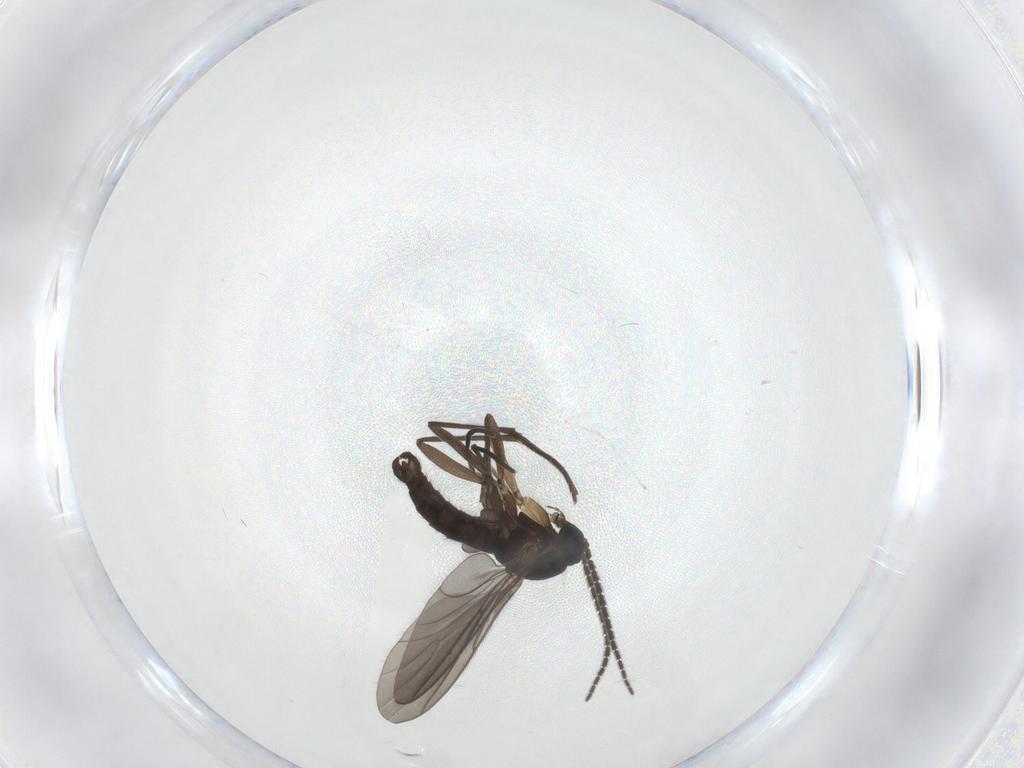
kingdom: Animalia
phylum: Arthropoda
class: Insecta
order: Diptera
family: Sciaridae
